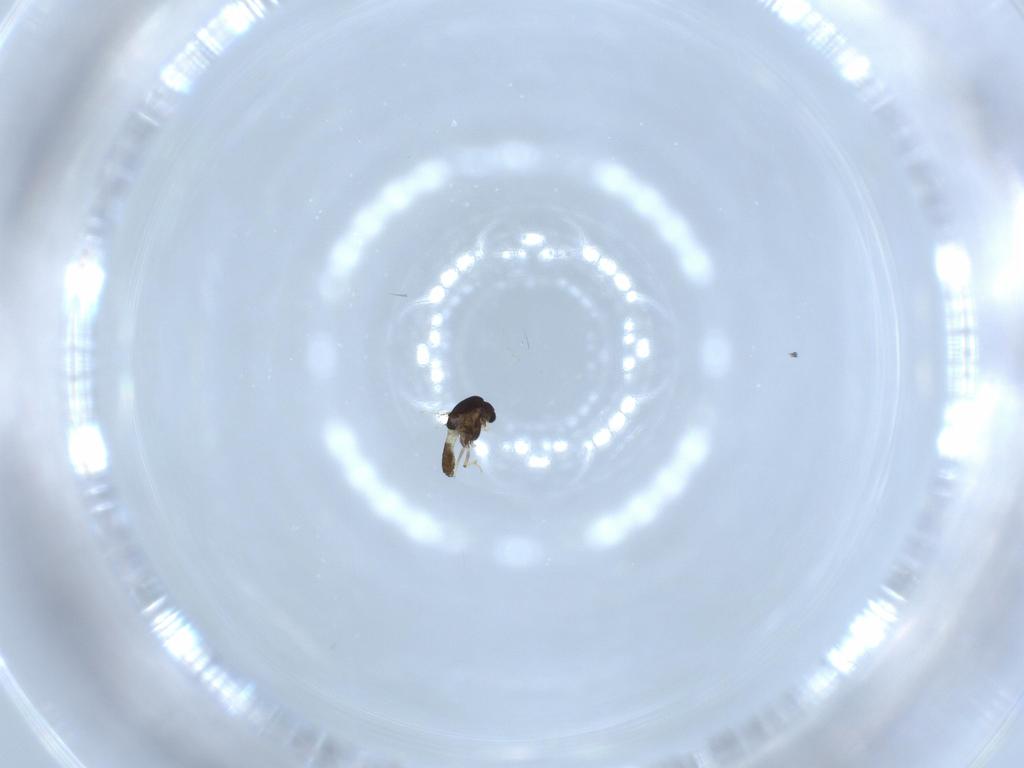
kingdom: Animalia
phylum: Arthropoda
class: Insecta
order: Diptera
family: Chironomidae
